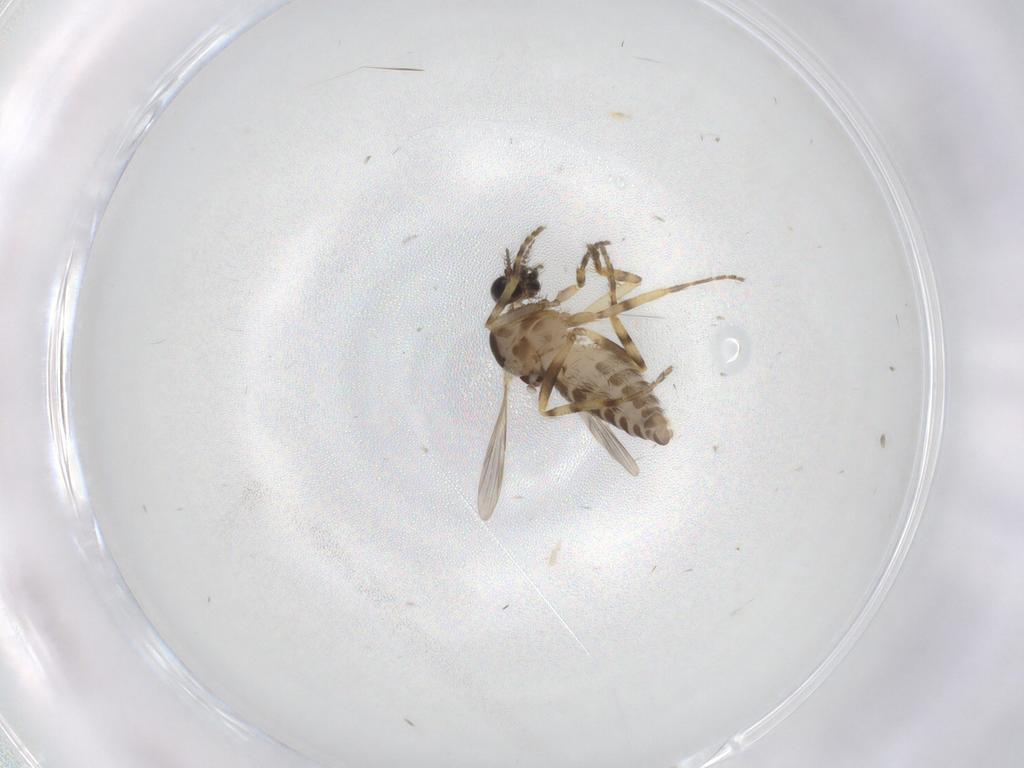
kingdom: Animalia
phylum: Arthropoda
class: Insecta
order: Diptera
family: Ceratopogonidae
